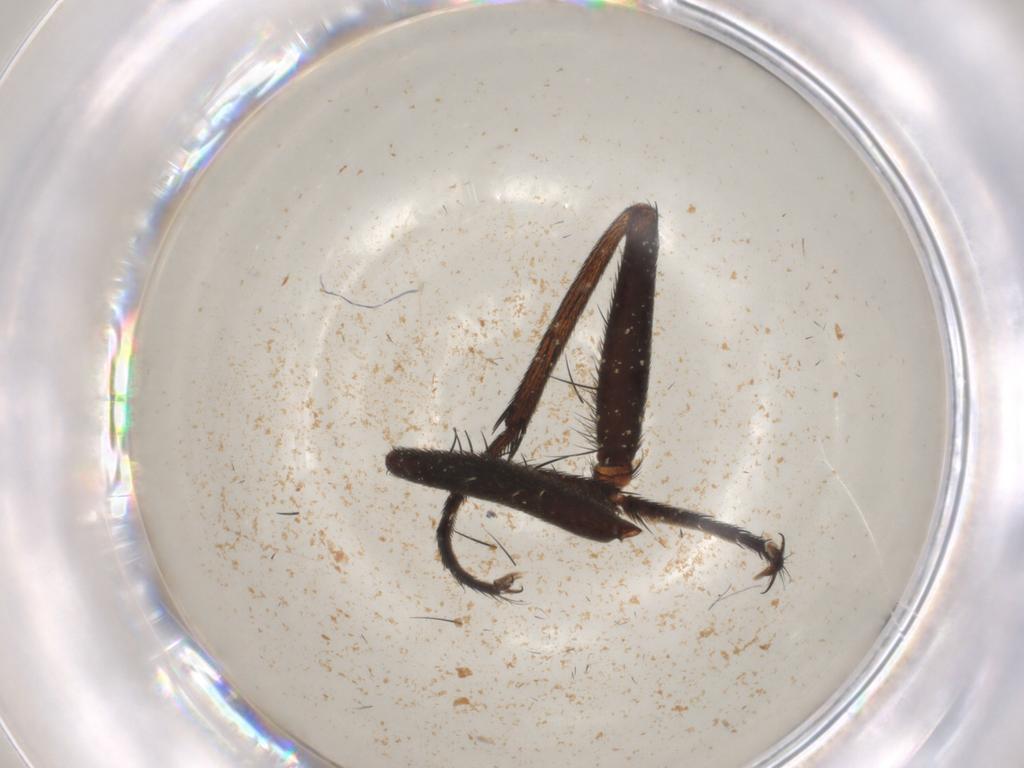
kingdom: Animalia
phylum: Arthropoda
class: Insecta
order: Diptera
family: Calliphoridae
